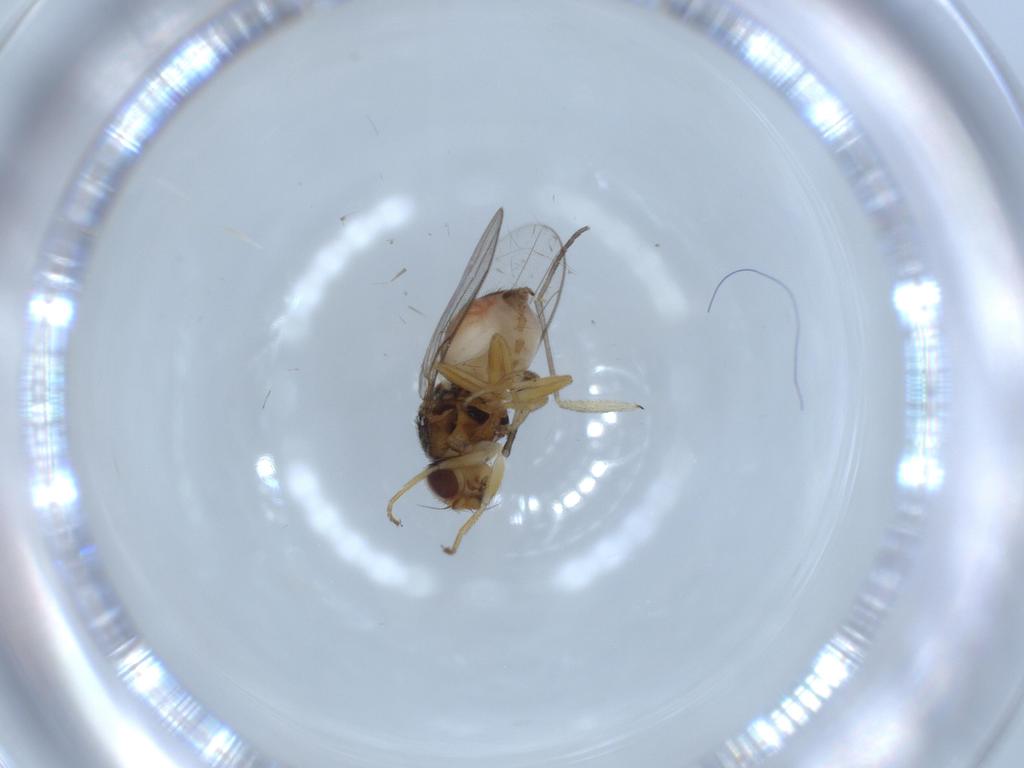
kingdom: Animalia
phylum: Arthropoda
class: Insecta
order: Diptera
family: Chloropidae
